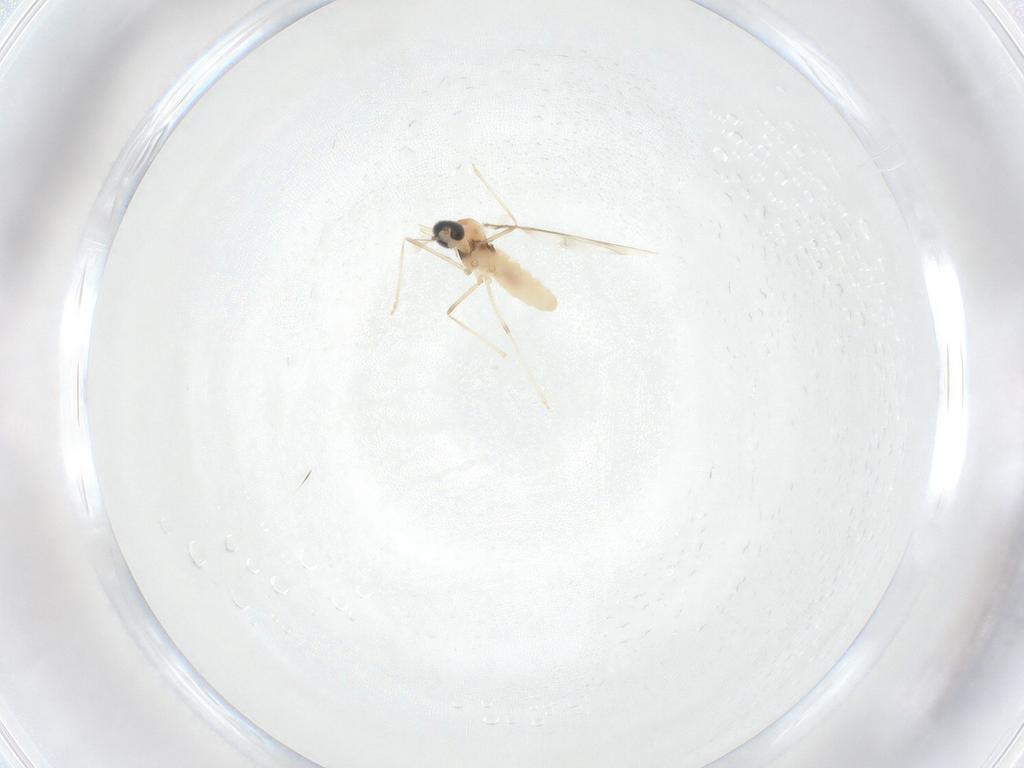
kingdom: Animalia
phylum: Arthropoda
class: Insecta
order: Diptera
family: Cecidomyiidae
